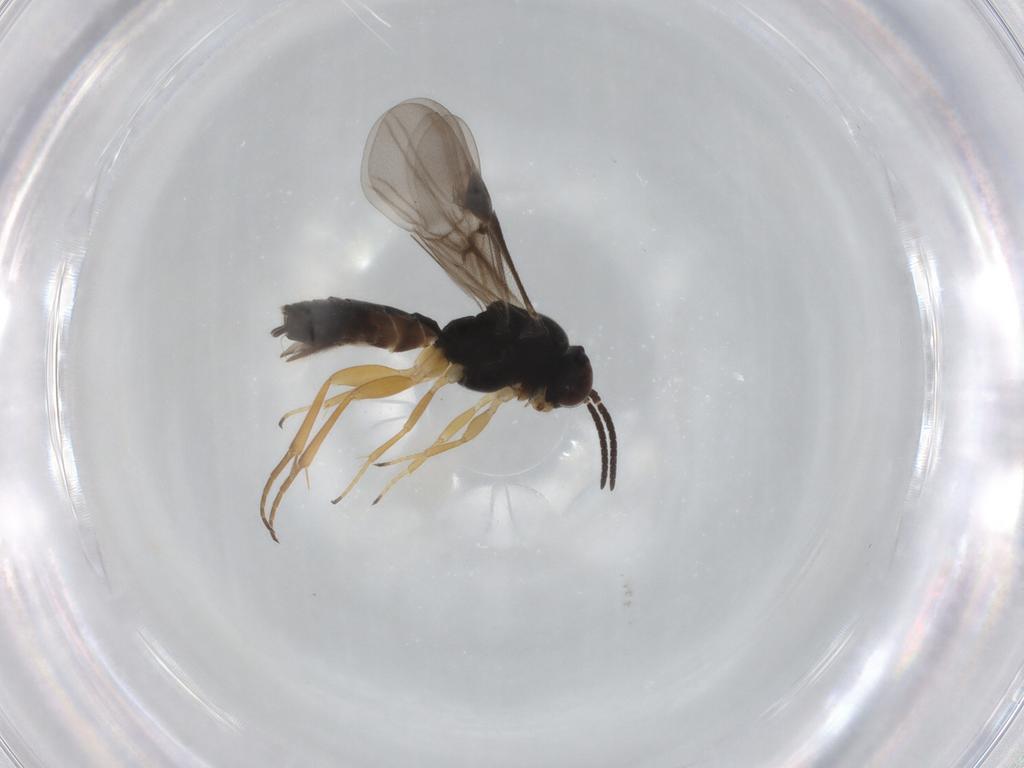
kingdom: Animalia
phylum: Arthropoda
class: Insecta
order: Hymenoptera
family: Braconidae
